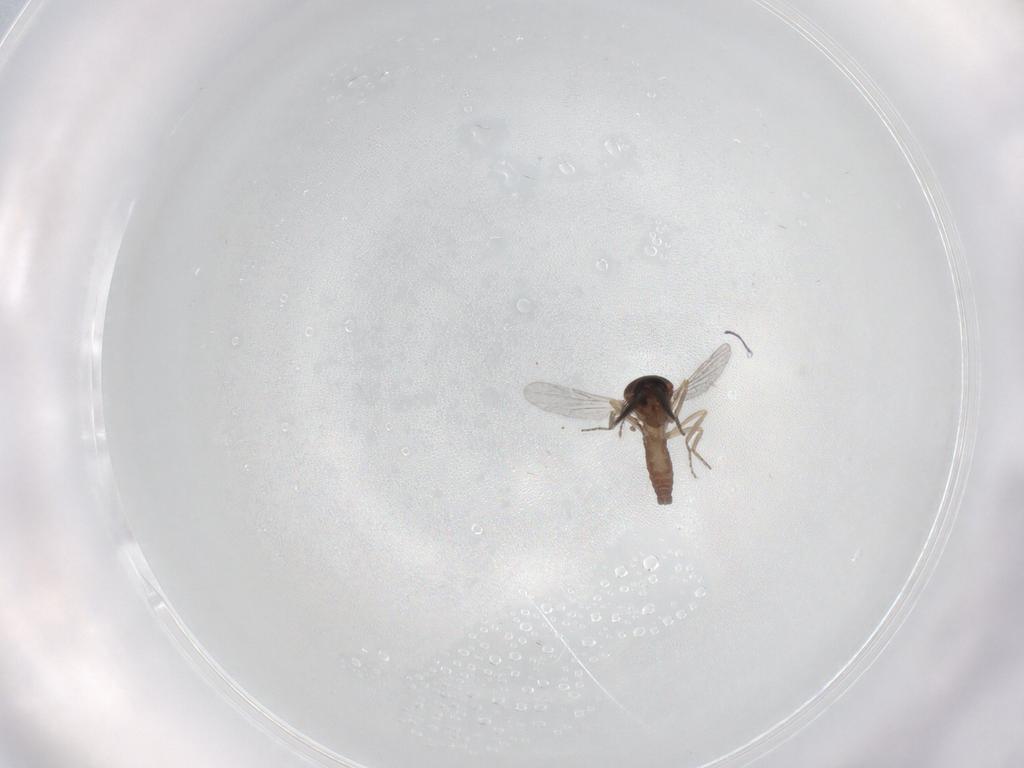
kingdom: Animalia
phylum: Arthropoda
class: Insecta
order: Diptera
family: Ceratopogonidae
